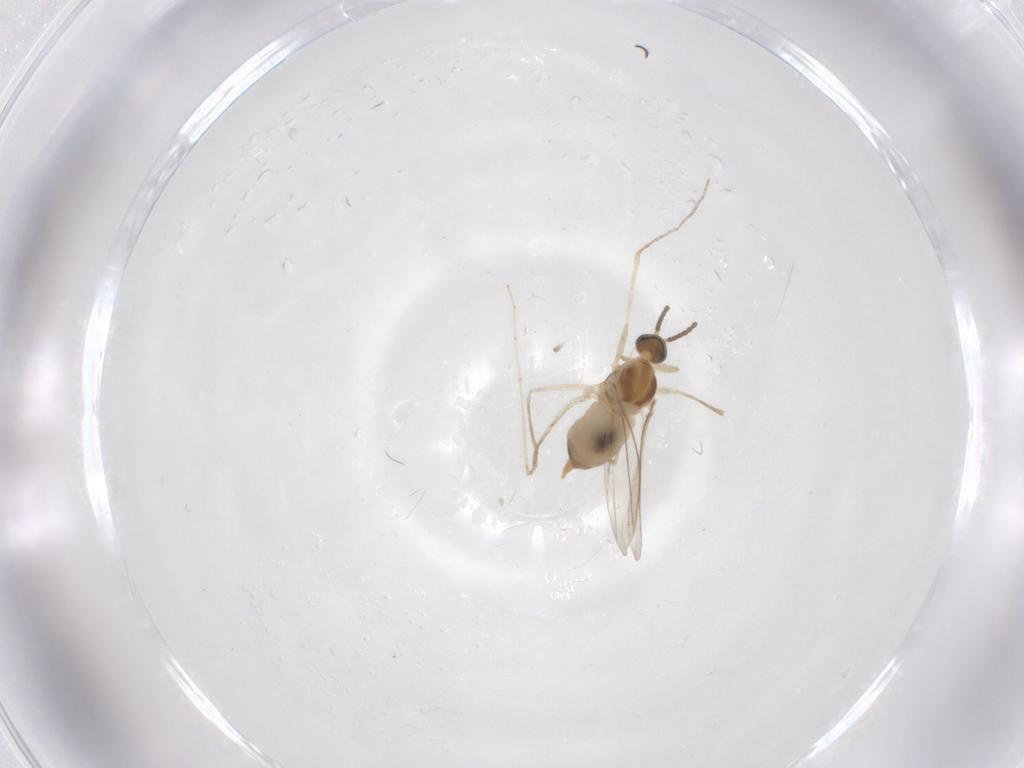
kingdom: Animalia
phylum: Arthropoda
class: Insecta
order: Diptera
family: Cecidomyiidae
